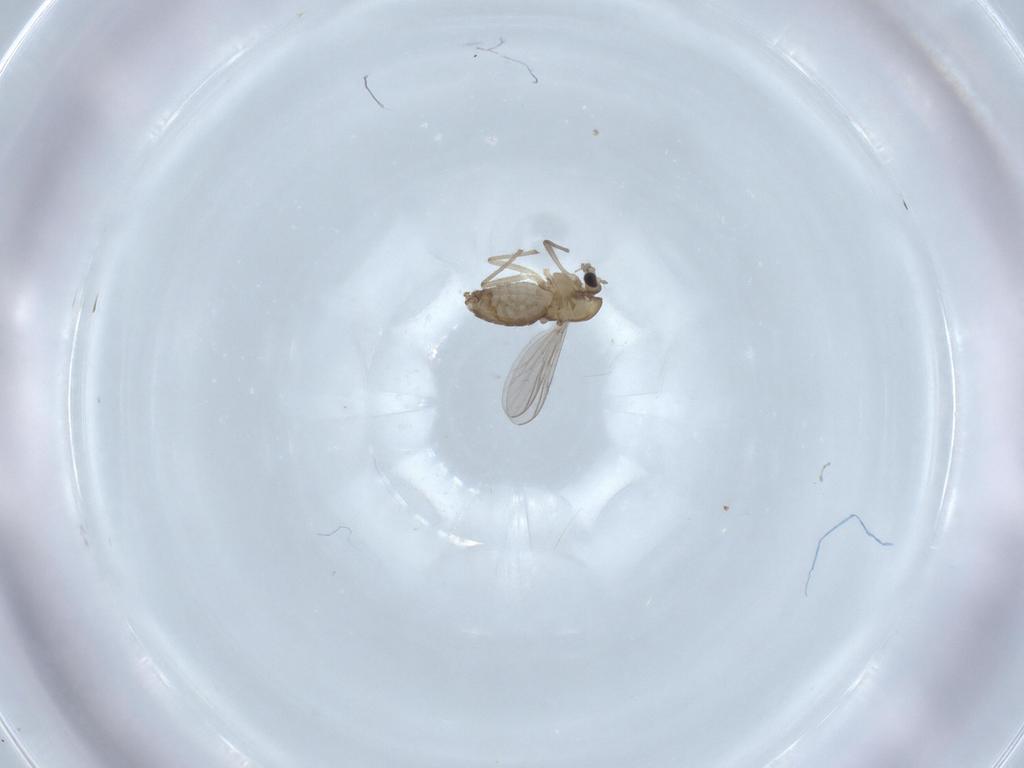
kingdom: Animalia
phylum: Arthropoda
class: Insecta
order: Diptera
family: Chironomidae
